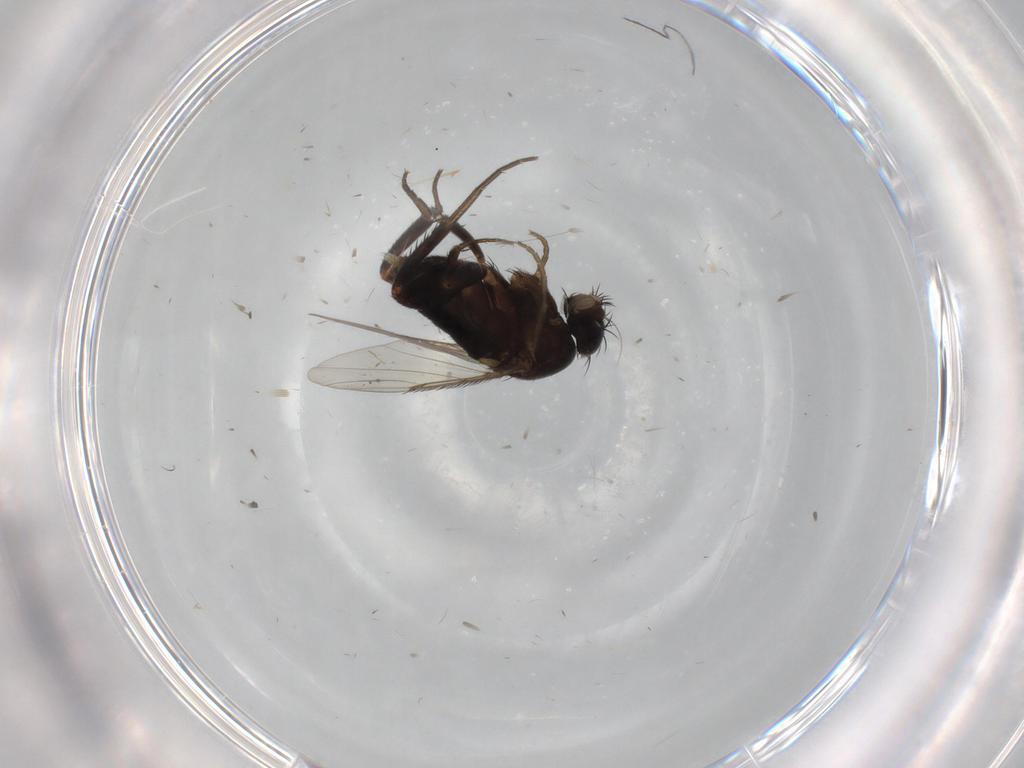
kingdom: Animalia
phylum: Arthropoda
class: Insecta
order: Diptera
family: Phoridae
